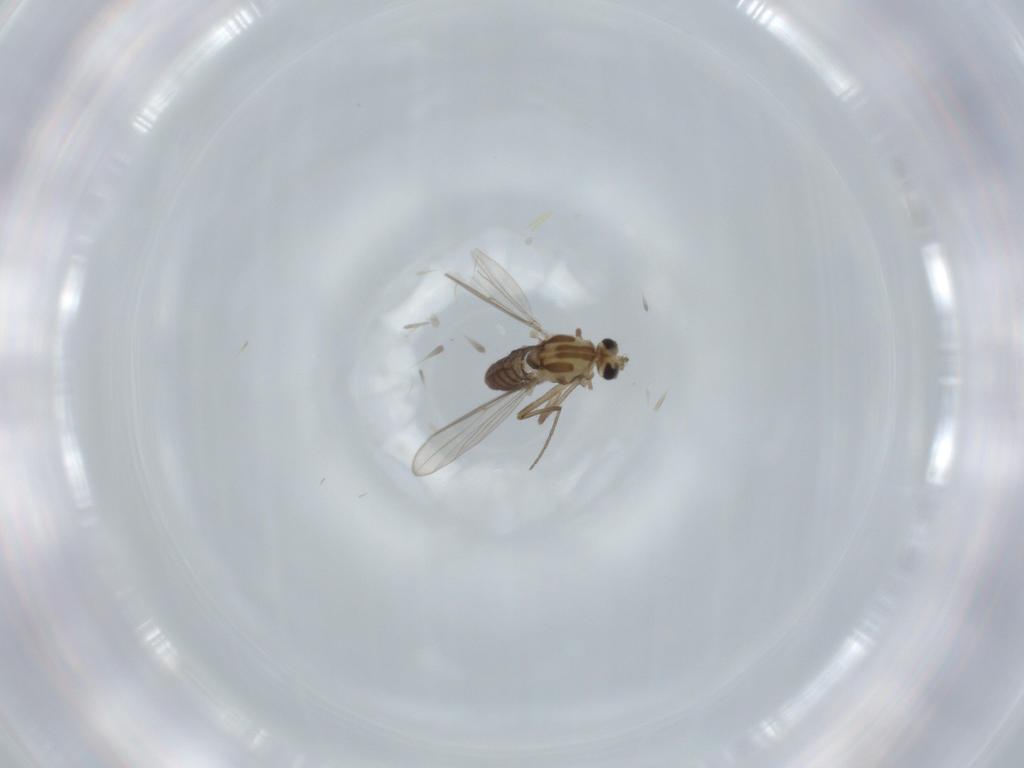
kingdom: Animalia
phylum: Arthropoda
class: Insecta
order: Diptera
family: Chironomidae
